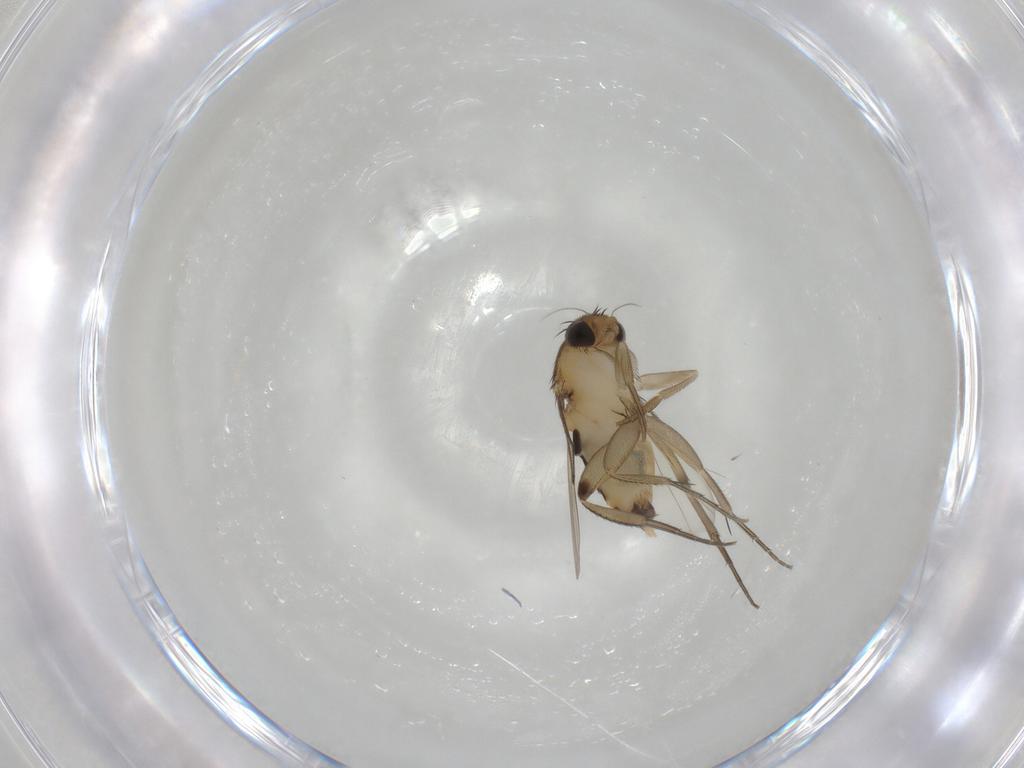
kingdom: Animalia
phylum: Arthropoda
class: Insecta
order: Diptera
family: Phoridae
